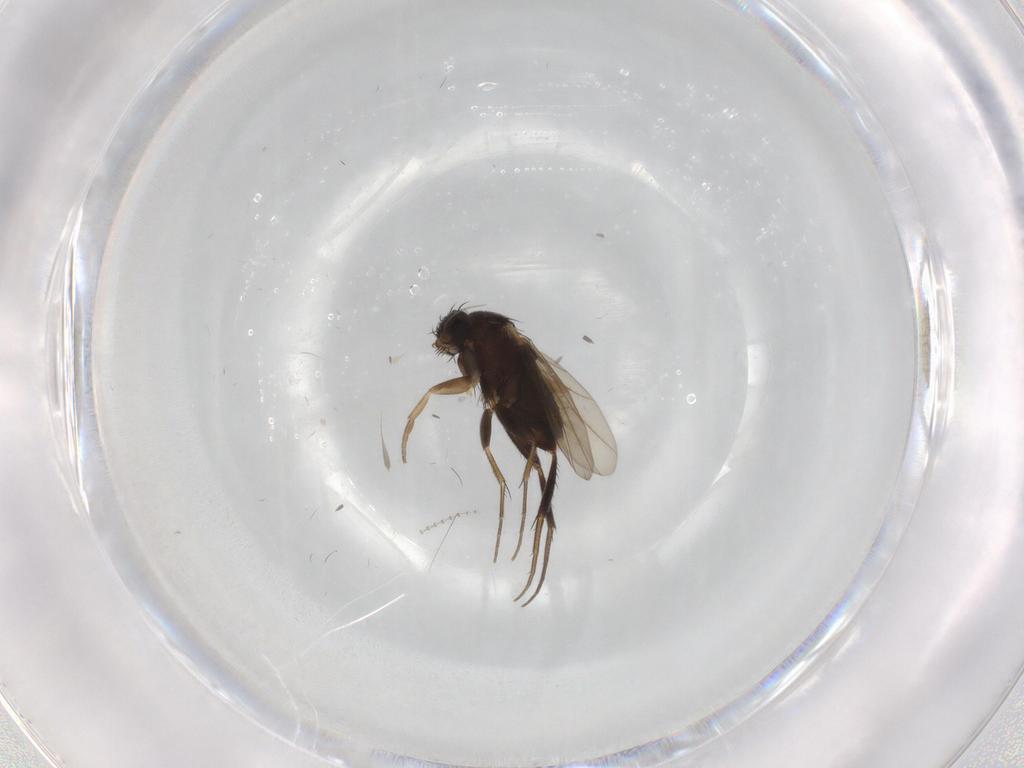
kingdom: Animalia
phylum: Arthropoda
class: Insecta
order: Diptera
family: Phoridae
